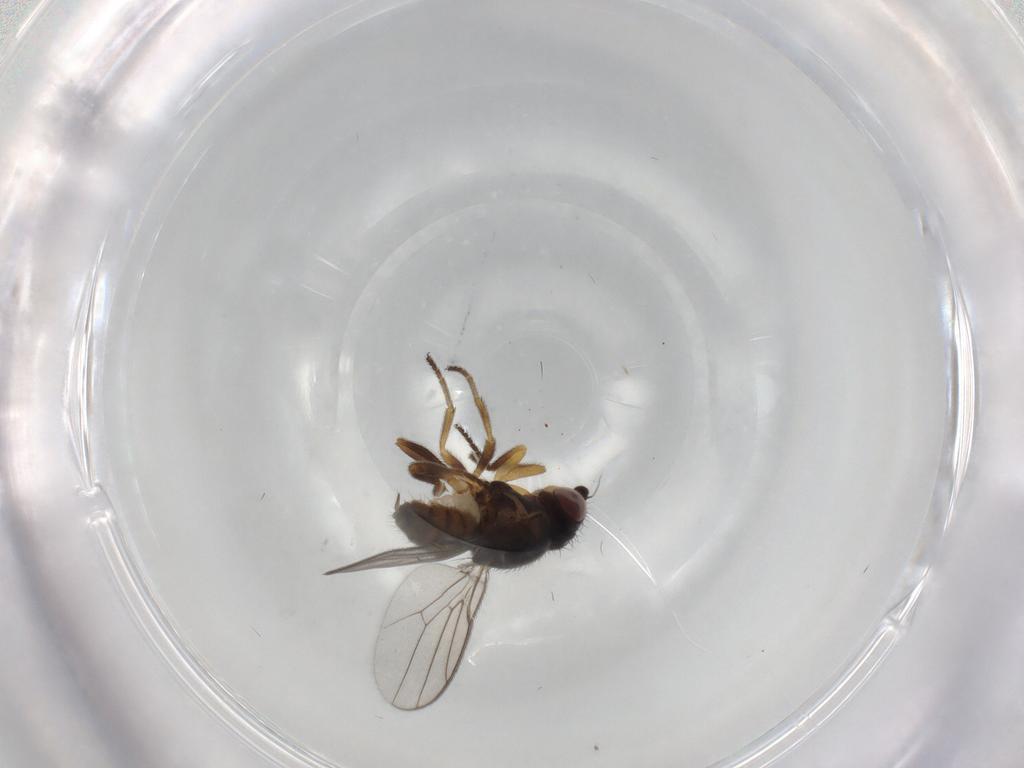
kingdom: Animalia
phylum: Arthropoda
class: Insecta
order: Diptera
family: Chloropidae
